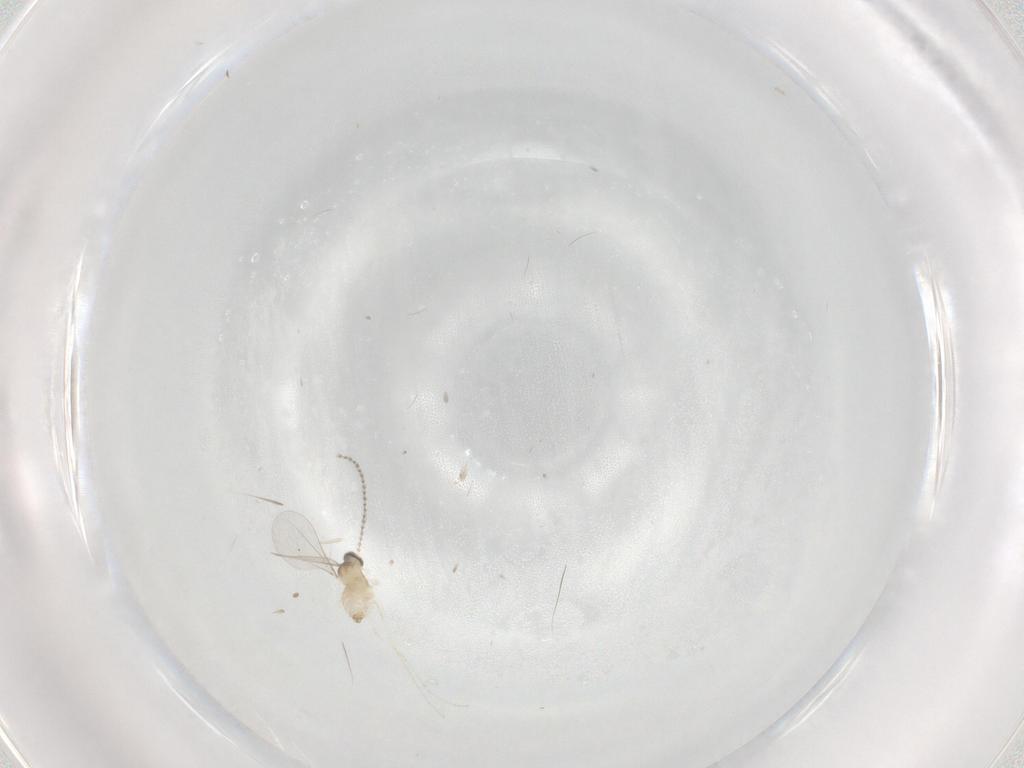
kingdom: Animalia
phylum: Arthropoda
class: Insecta
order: Diptera
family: Cecidomyiidae
